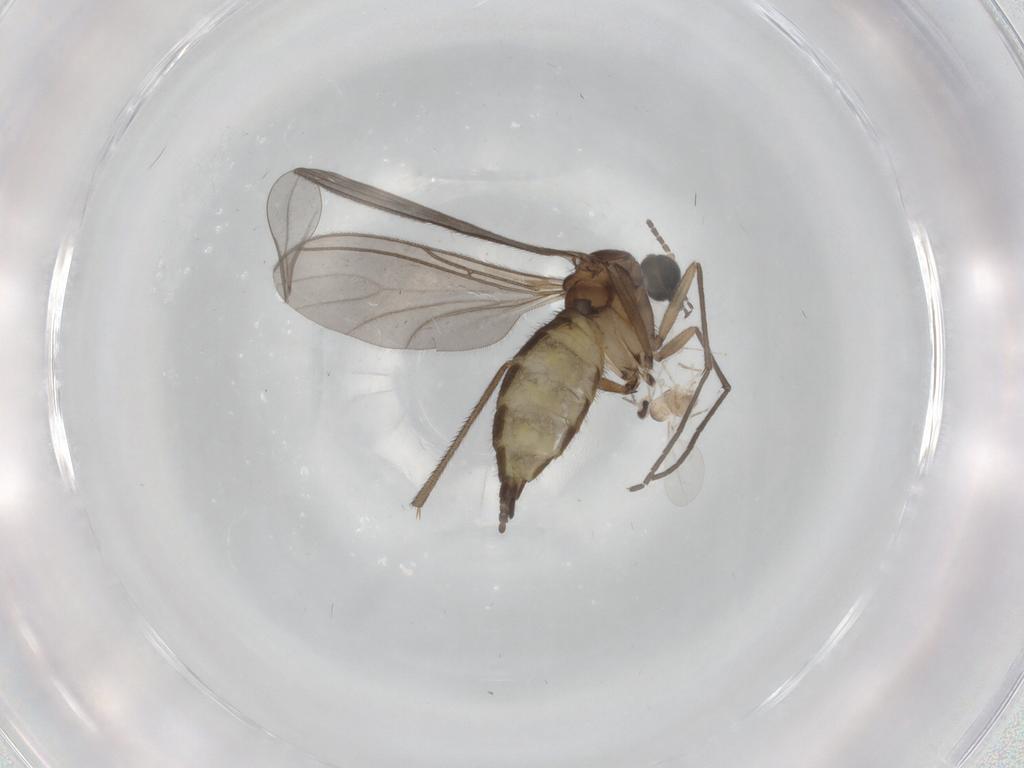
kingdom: Animalia
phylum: Arthropoda
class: Insecta
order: Diptera
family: Sciaridae
